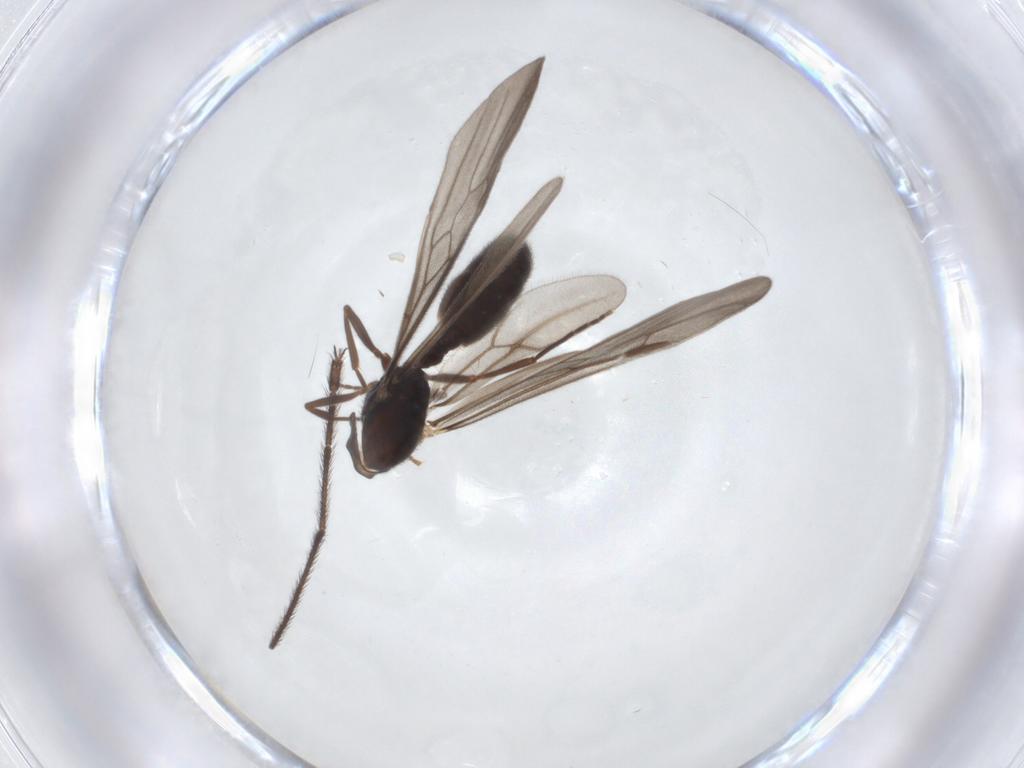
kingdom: Animalia
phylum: Arthropoda
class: Insecta
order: Hymenoptera
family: Formicidae
